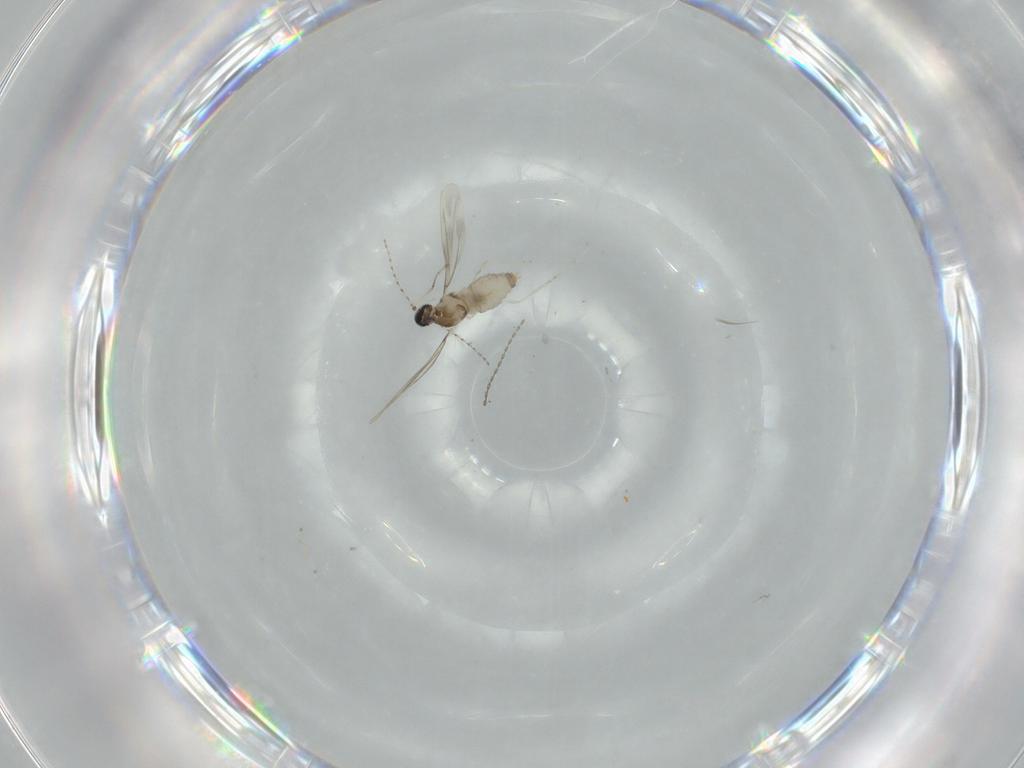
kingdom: Animalia
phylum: Arthropoda
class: Insecta
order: Diptera
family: Cecidomyiidae
